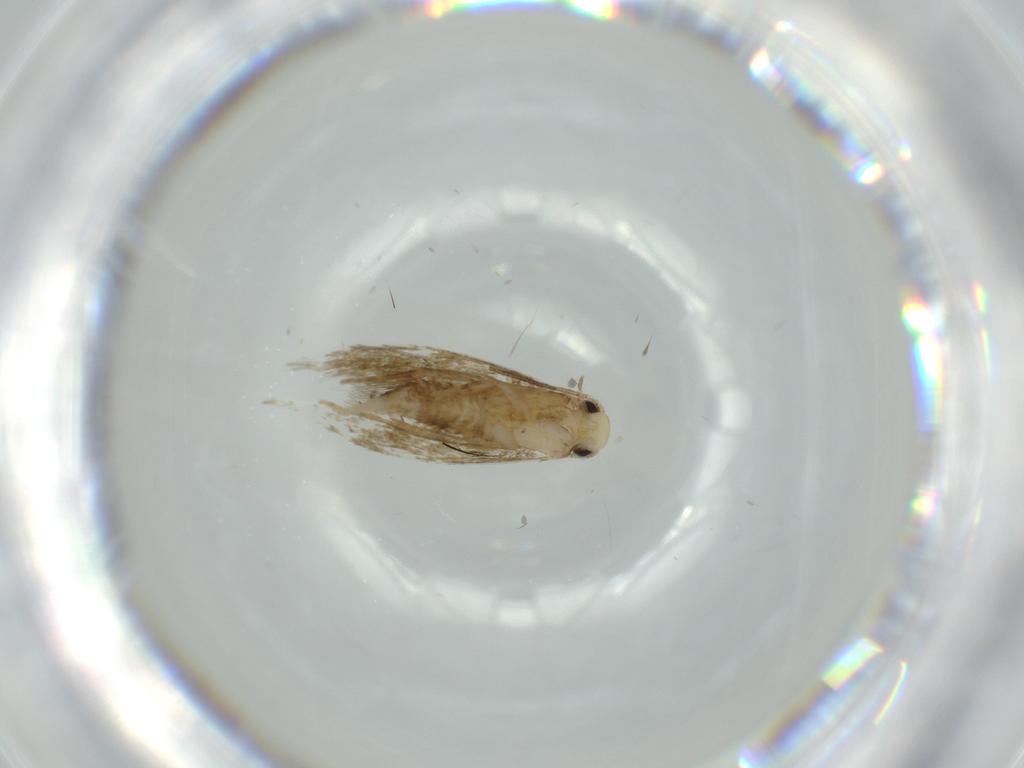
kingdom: Animalia
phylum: Arthropoda
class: Insecta
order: Lepidoptera
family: Tineidae
